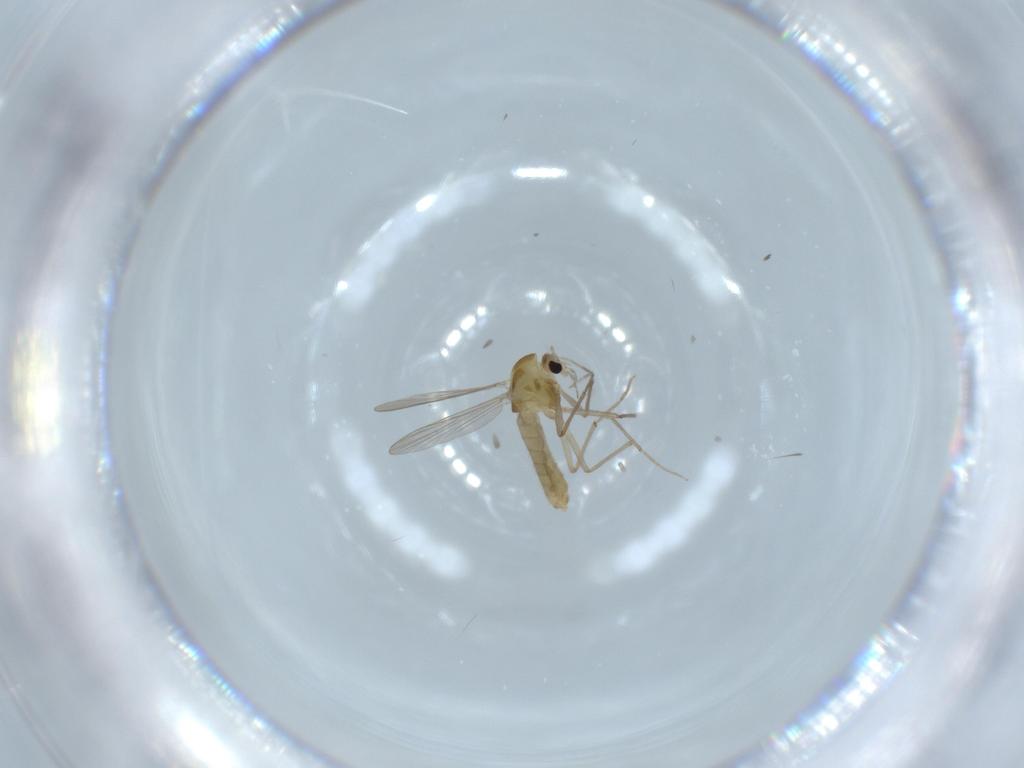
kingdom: Animalia
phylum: Arthropoda
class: Insecta
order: Diptera
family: Chironomidae
